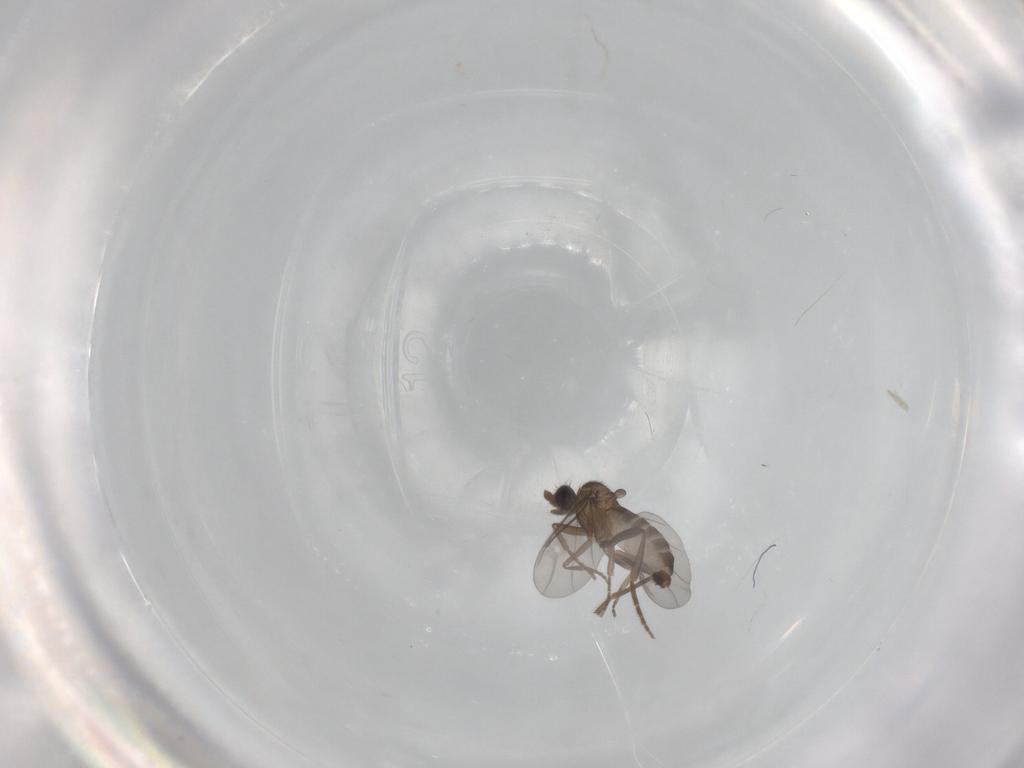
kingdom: Animalia
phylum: Arthropoda
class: Insecta
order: Diptera
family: Phoridae
